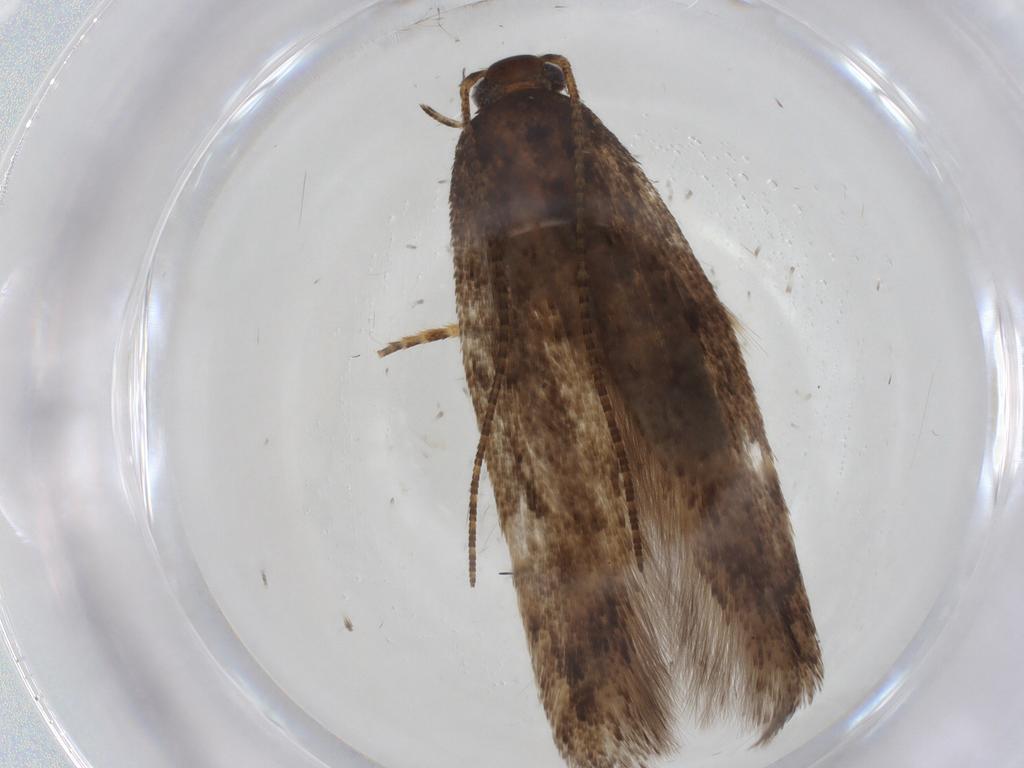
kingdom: Animalia
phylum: Arthropoda
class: Insecta
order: Lepidoptera
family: Gelechiidae
